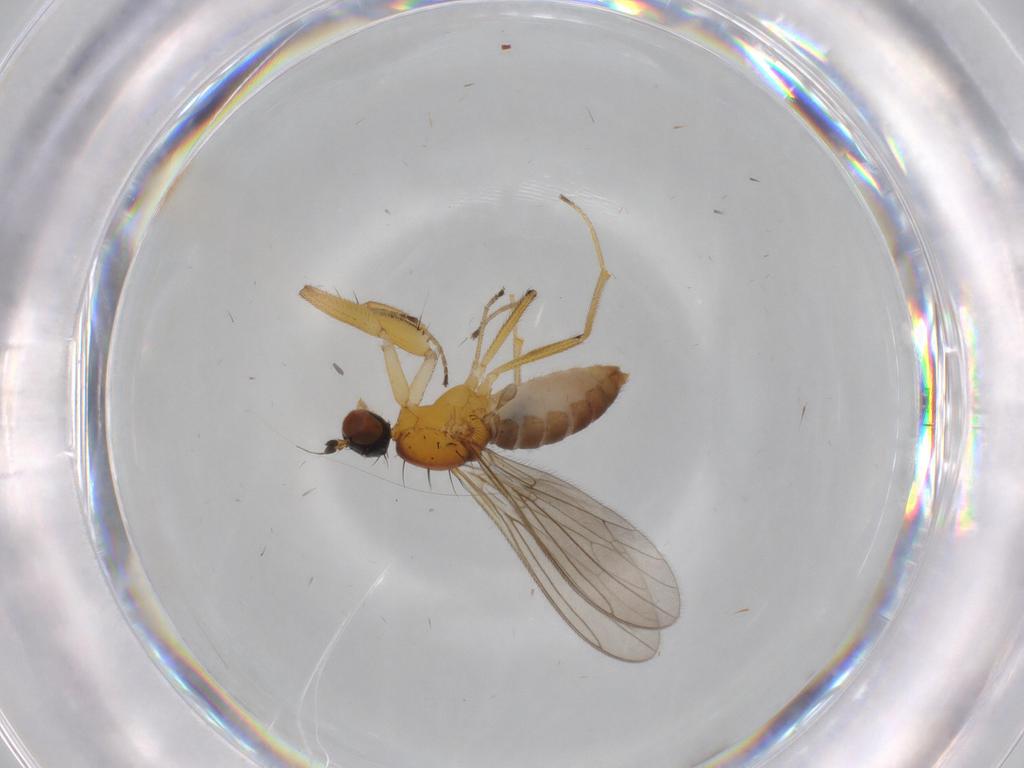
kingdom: Animalia
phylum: Arthropoda
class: Insecta
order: Diptera
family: Empididae
